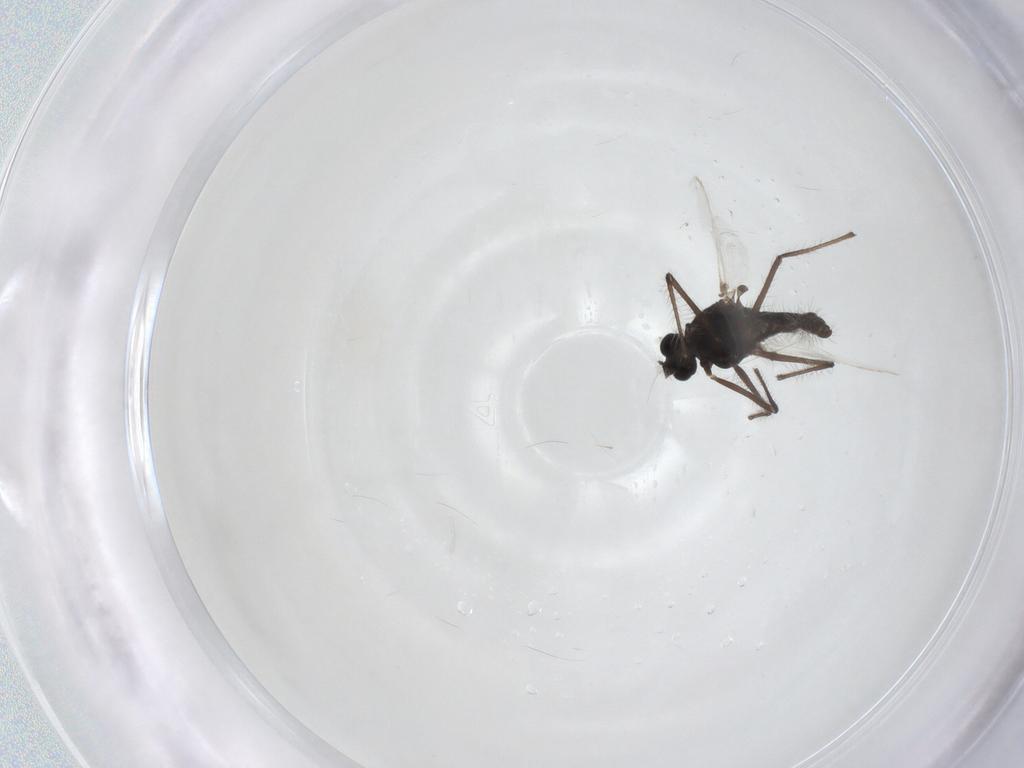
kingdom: Animalia
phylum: Arthropoda
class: Insecta
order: Diptera
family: Chironomidae
